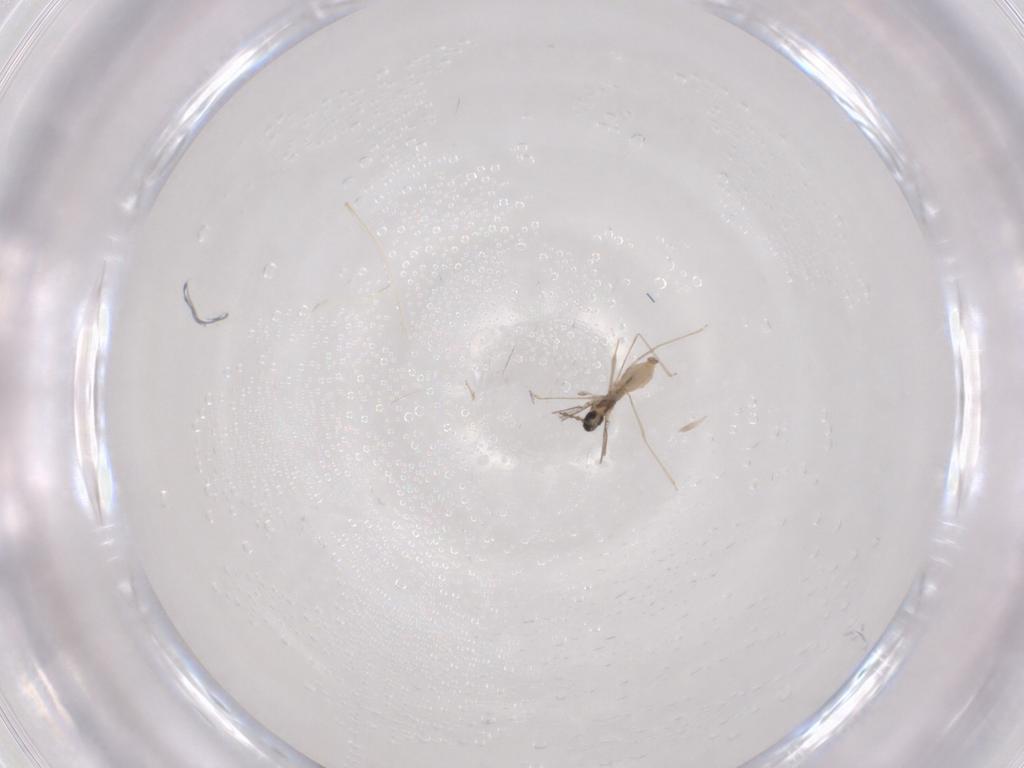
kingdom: Animalia
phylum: Arthropoda
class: Insecta
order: Diptera
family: Cecidomyiidae
